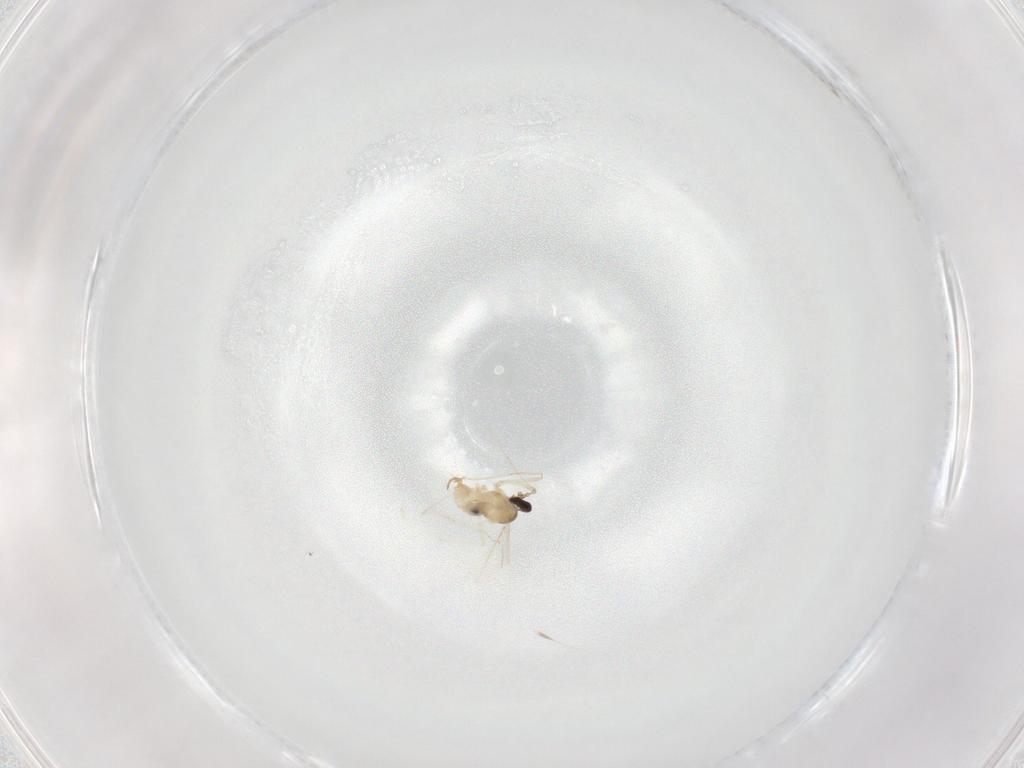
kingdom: Animalia
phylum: Arthropoda
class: Insecta
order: Diptera
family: Cecidomyiidae
